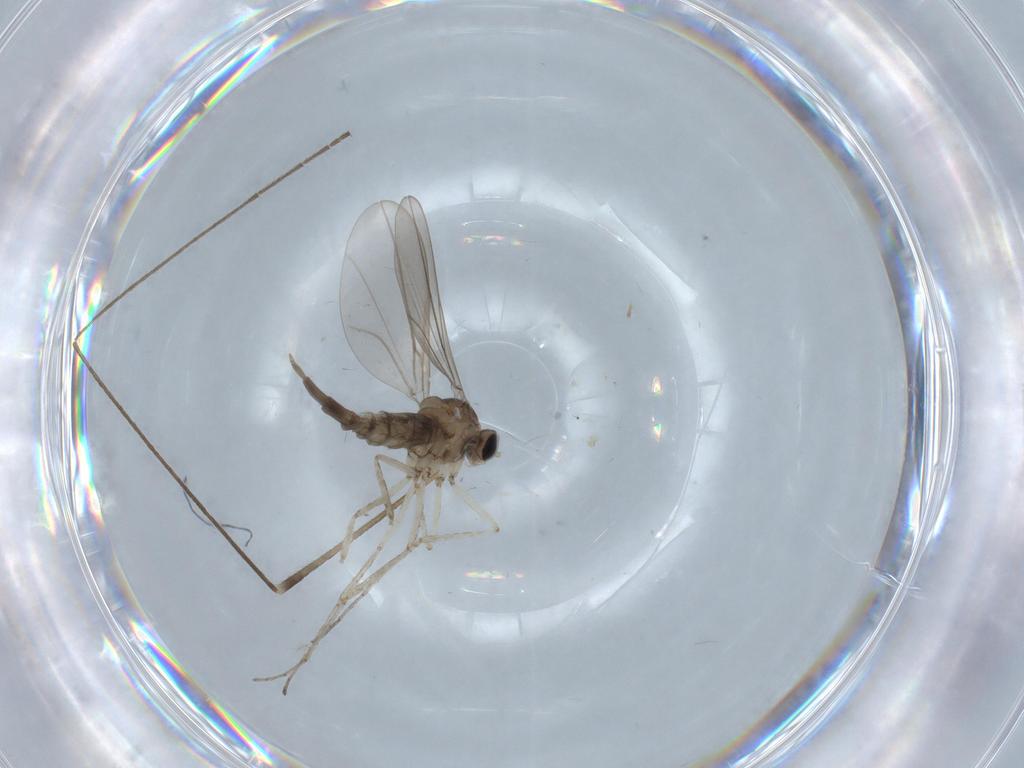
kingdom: Animalia
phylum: Arthropoda
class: Insecta
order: Diptera
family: Limoniidae
